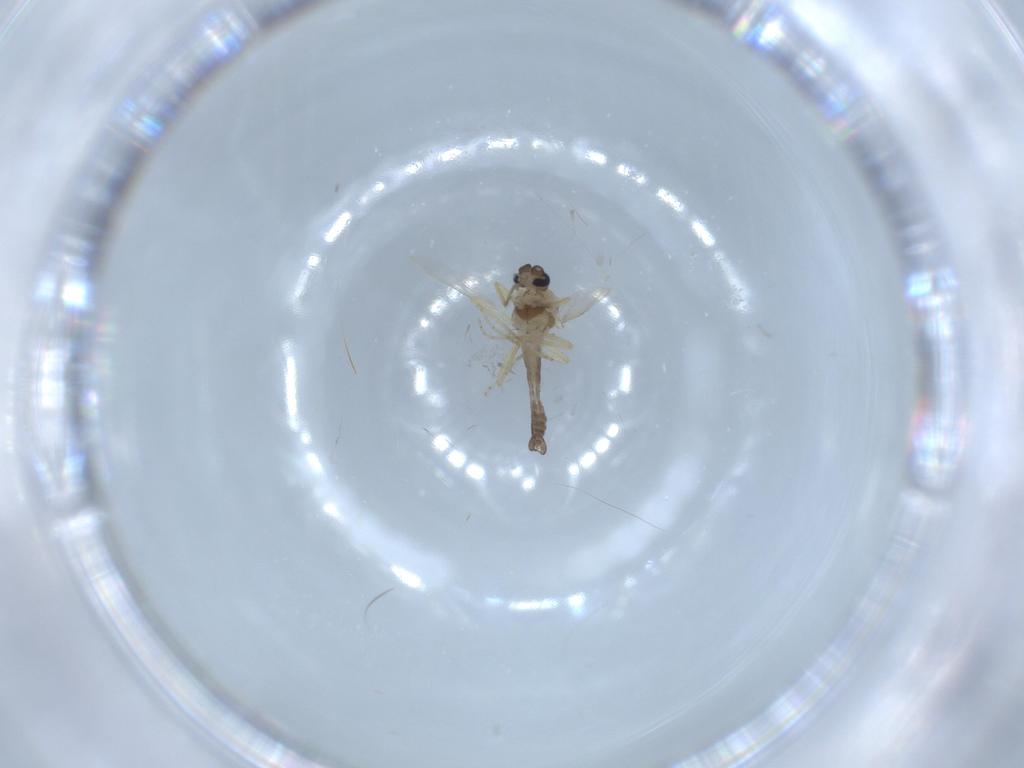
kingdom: Animalia
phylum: Arthropoda
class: Insecta
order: Diptera
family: Ceratopogonidae
